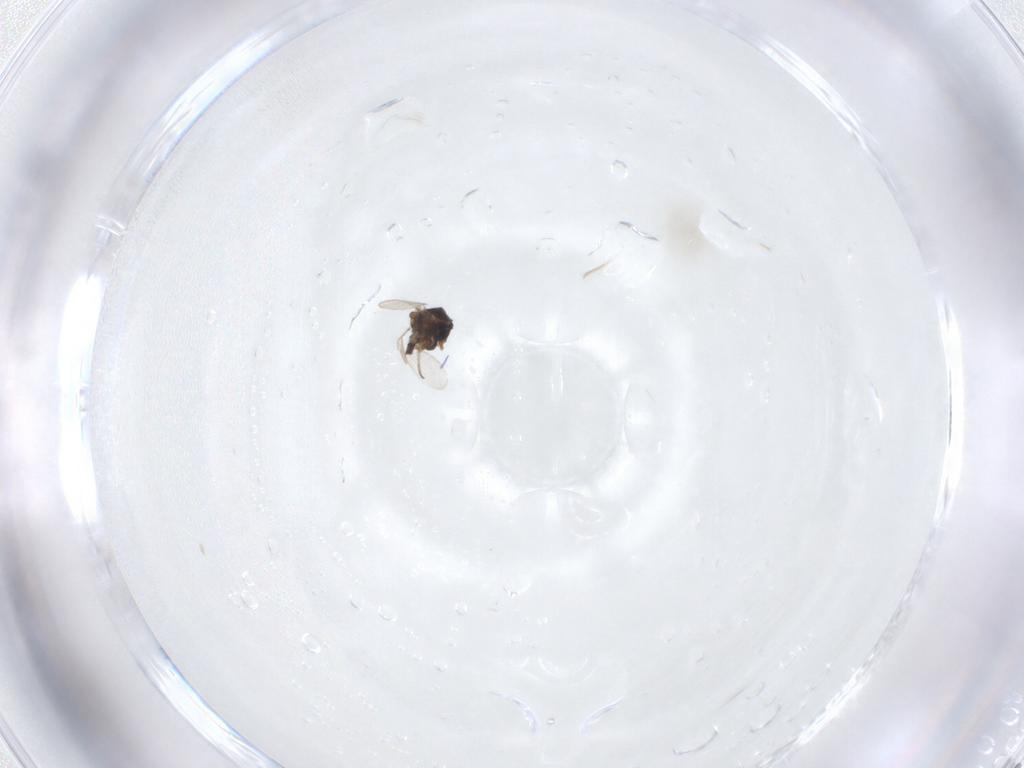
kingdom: Animalia
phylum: Arthropoda
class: Insecta
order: Diptera
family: Ceratopogonidae
